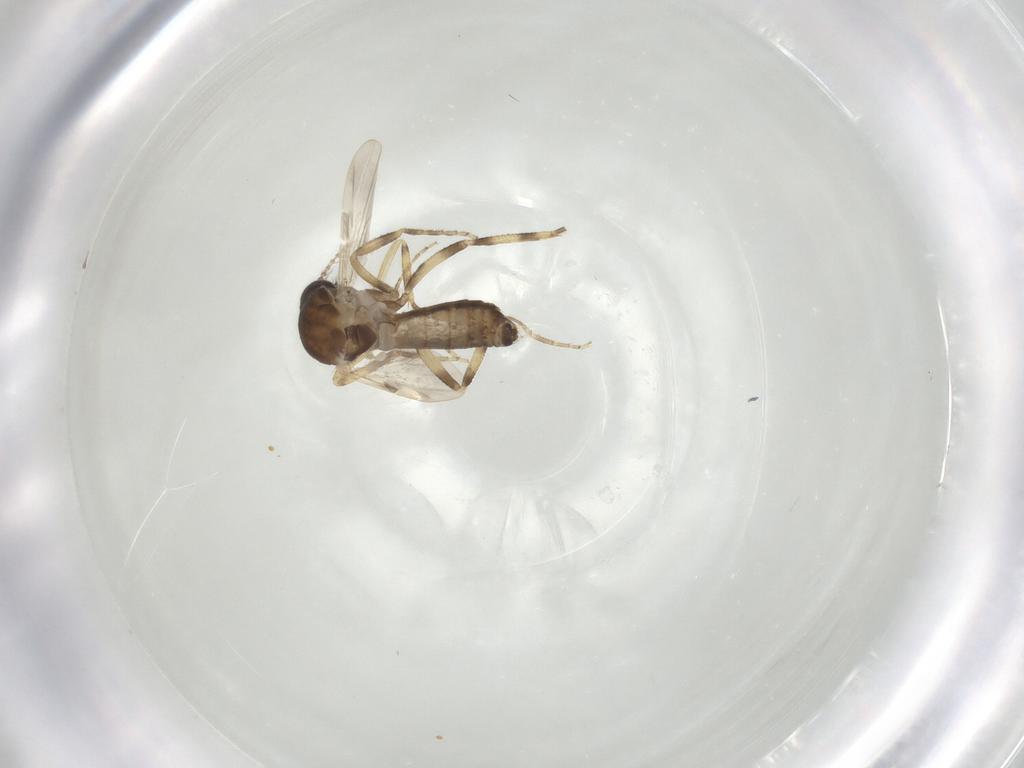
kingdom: Animalia
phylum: Arthropoda
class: Insecta
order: Diptera
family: Ceratopogonidae
